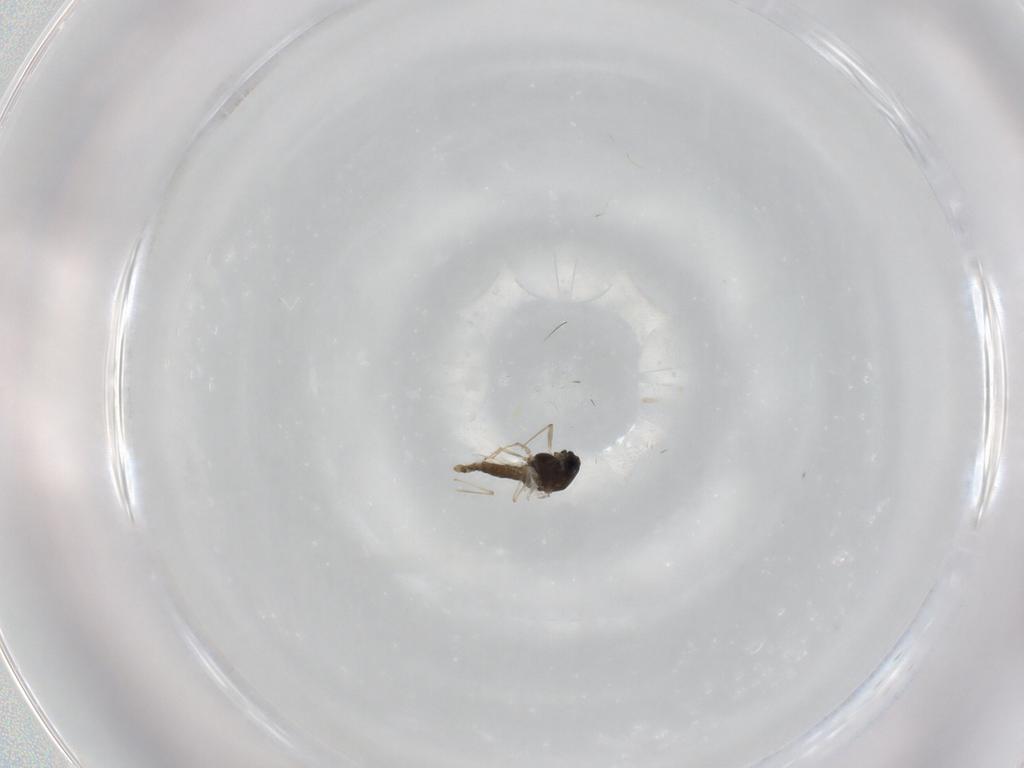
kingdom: Animalia
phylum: Arthropoda
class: Insecta
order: Diptera
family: Chironomidae
